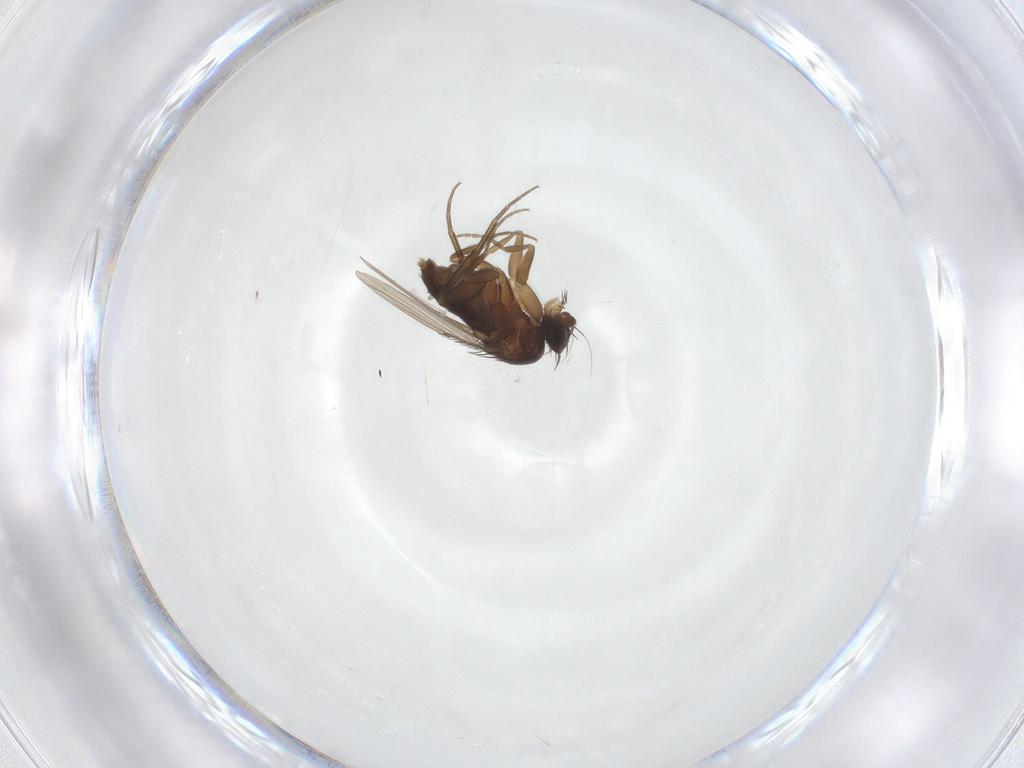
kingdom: Animalia
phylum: Arthropoda
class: Insecta
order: Diptera
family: Phoridae
